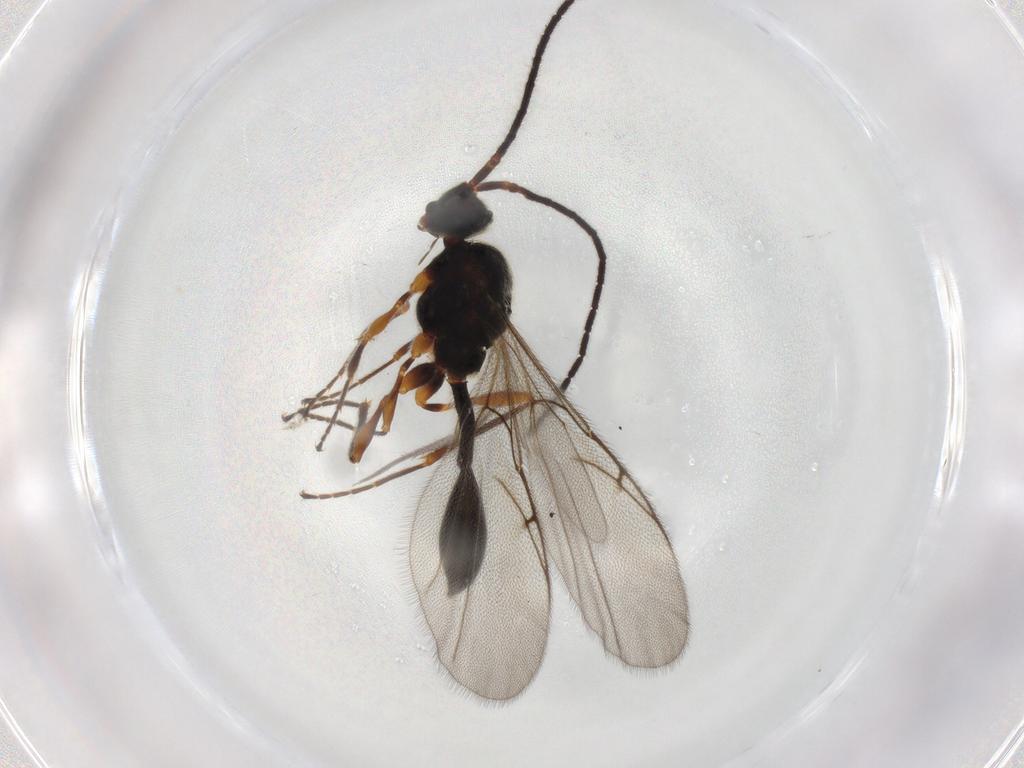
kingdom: Animalia
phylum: Arthropoda
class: Insecta
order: Hymenoptera
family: Diapriidae
